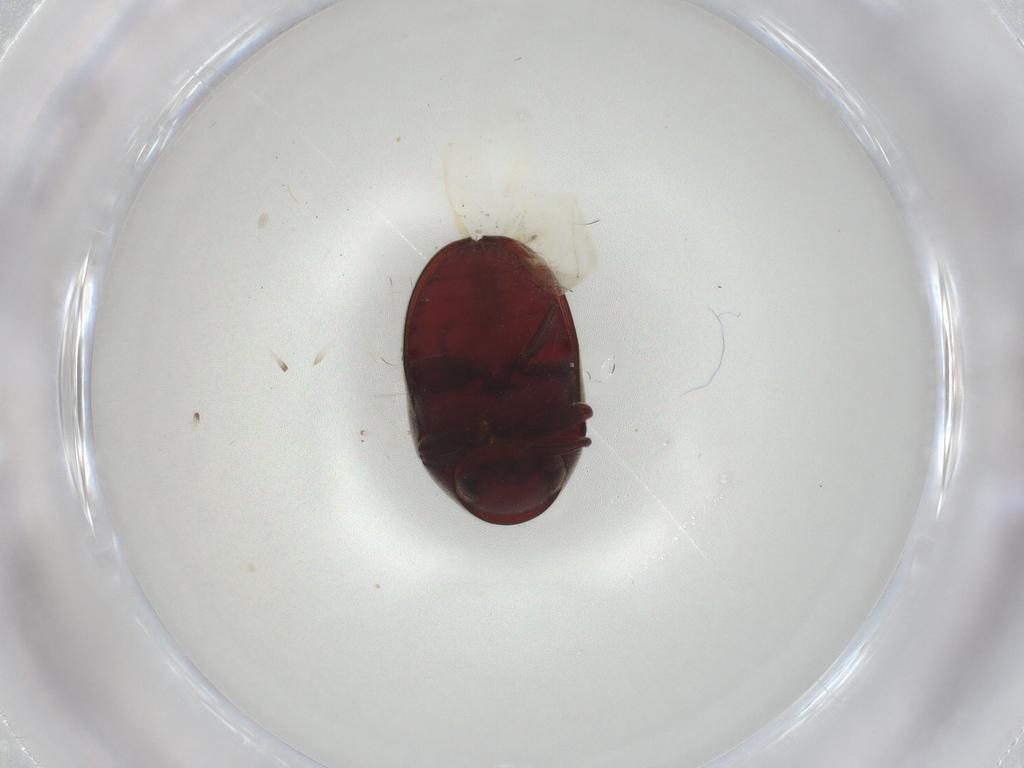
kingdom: Animalia
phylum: Arthropoda
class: Insecta
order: Coleoptera
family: Anobiidae
